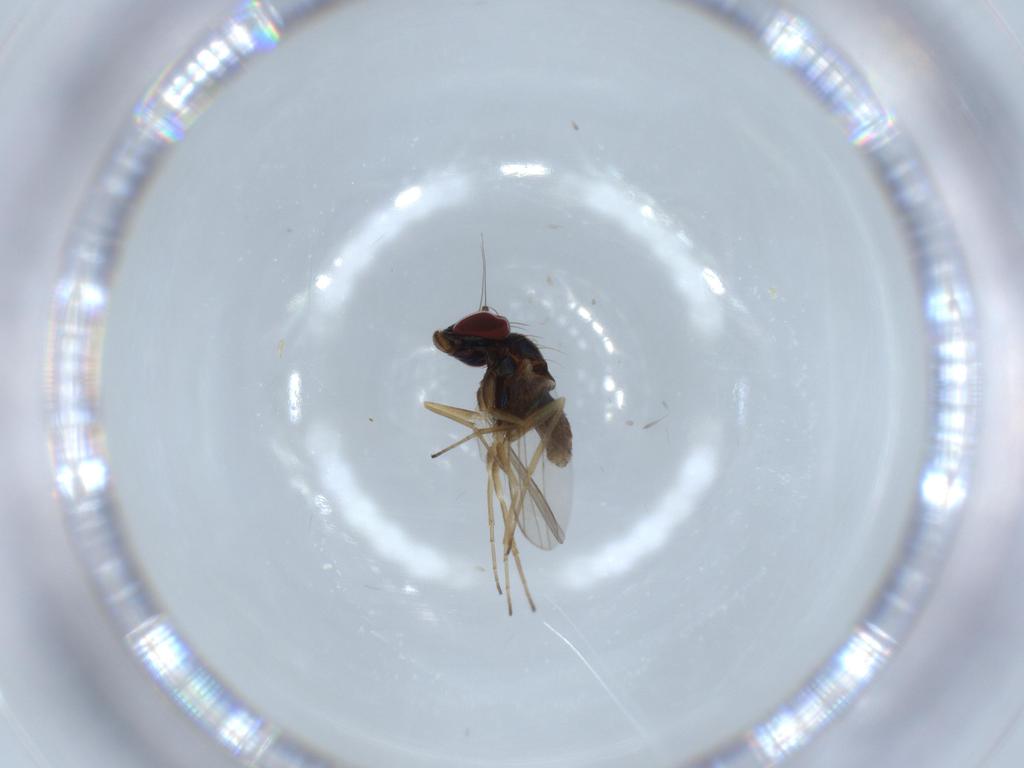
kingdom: Animalia
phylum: Arthropoda
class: Insecta
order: Diptera
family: Dolichopodidae
